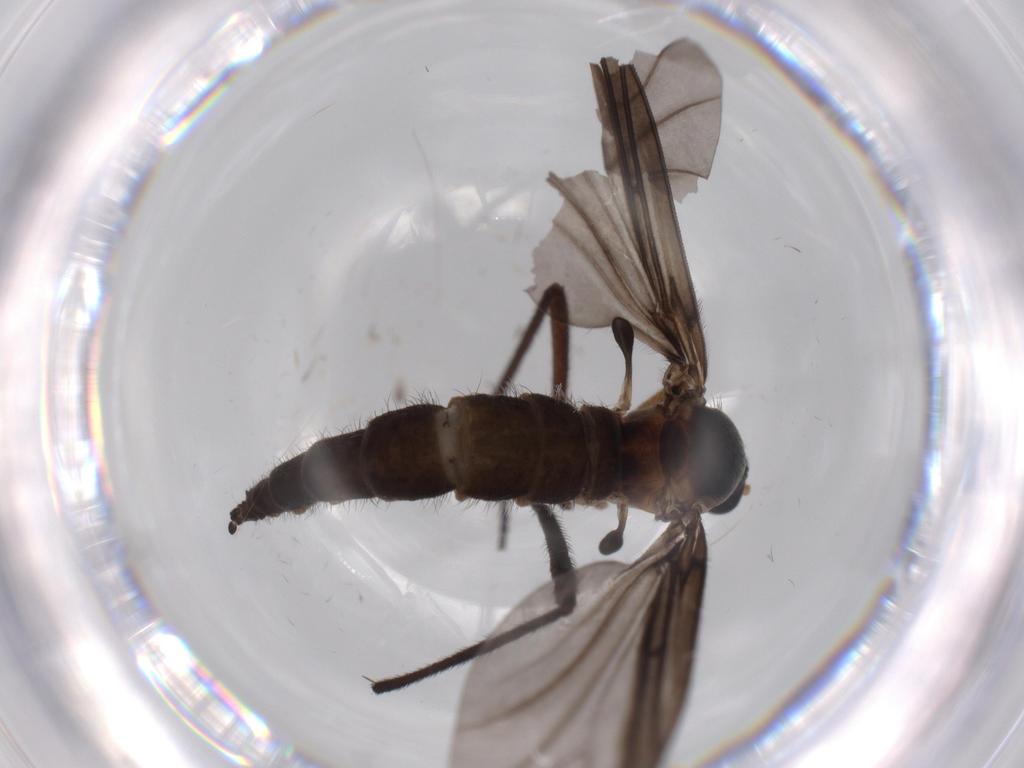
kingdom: Animalia
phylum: Arthropoda
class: Insecta
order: Diptera
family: Sciaridae
